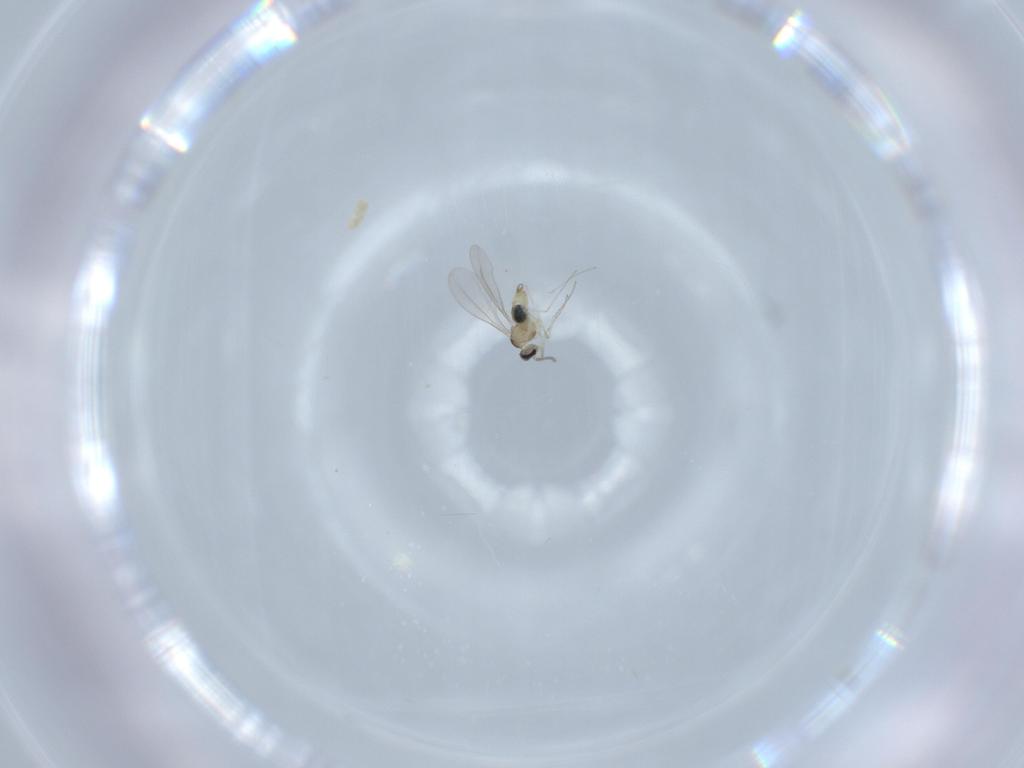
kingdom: Animalia
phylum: Arthropoda
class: Insecta
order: Diptera
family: Cecidomyiidae
